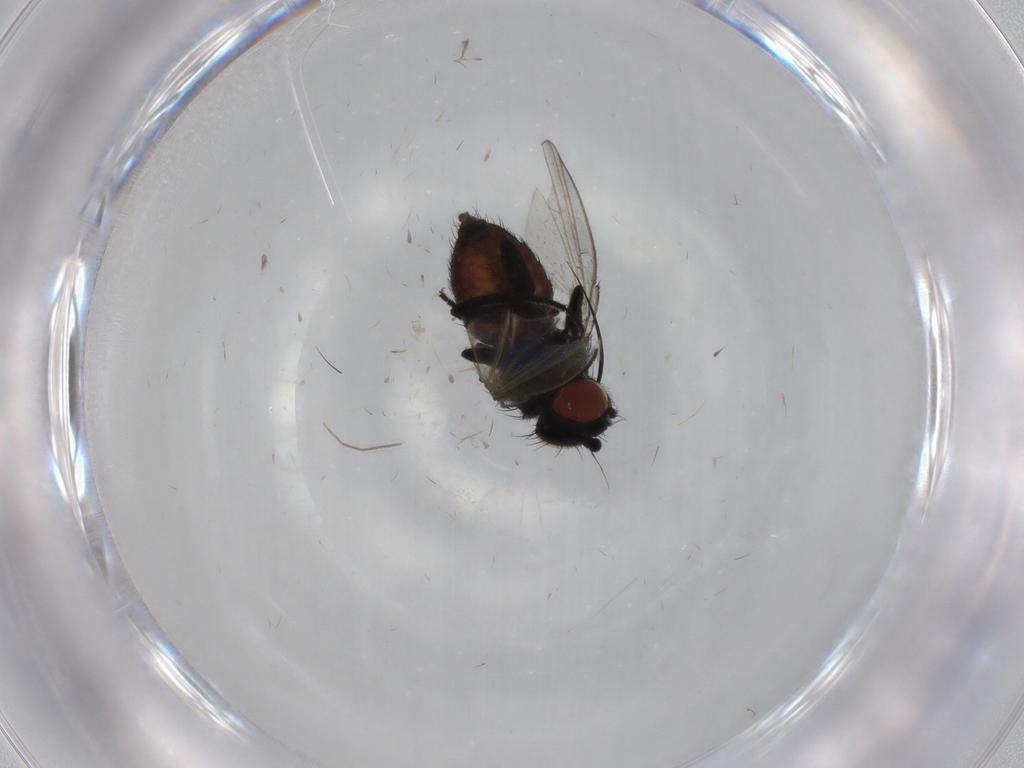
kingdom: Animalia
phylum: Arthropoda
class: Insecta
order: Diptera
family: Milichiidae
